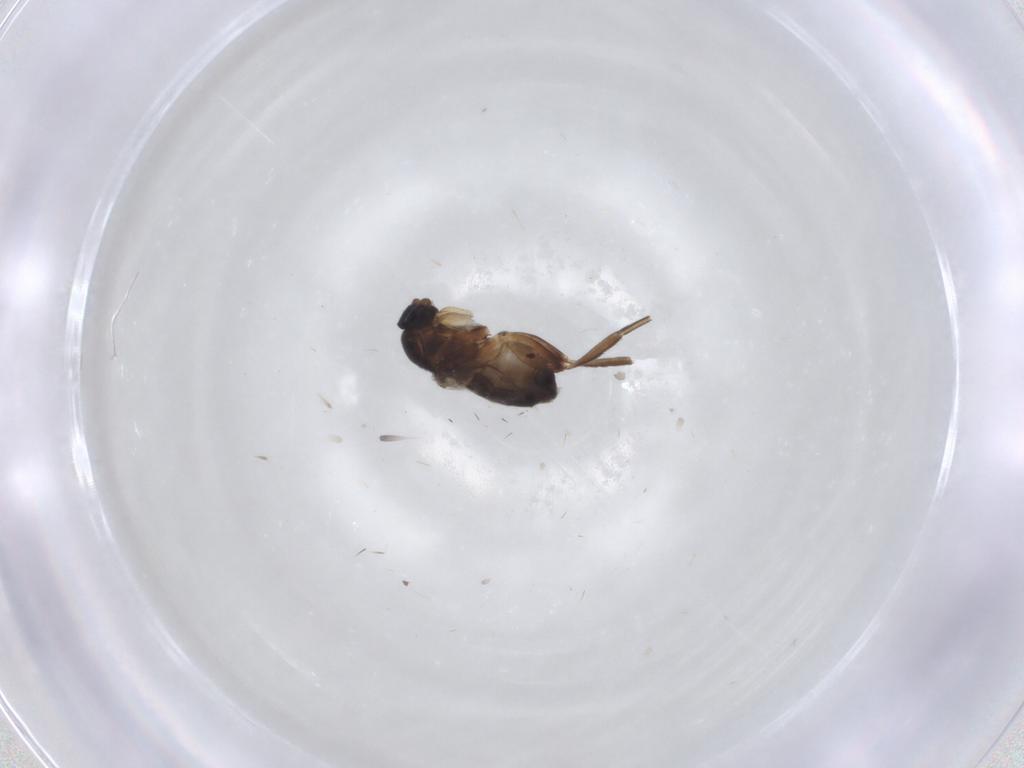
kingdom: Animalia
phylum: Arthropoda
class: Insecta
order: Diptera
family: Phoridae
